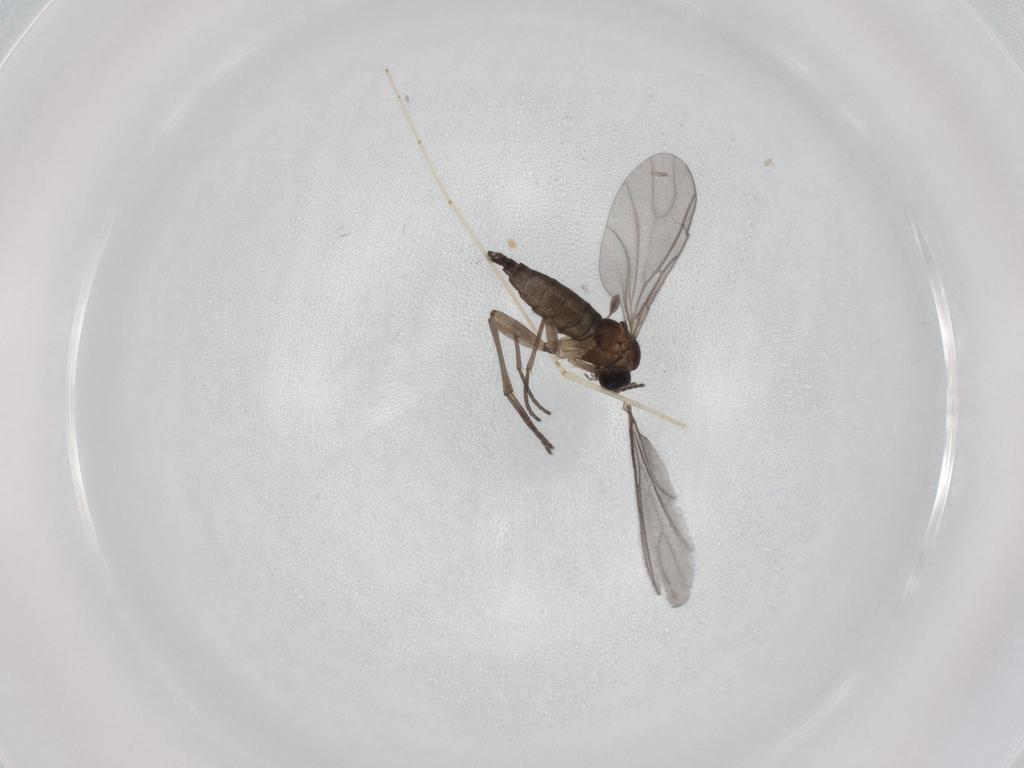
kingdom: Animalia
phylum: Arthropoda
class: Insecta
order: Diptera
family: Sciaridae
